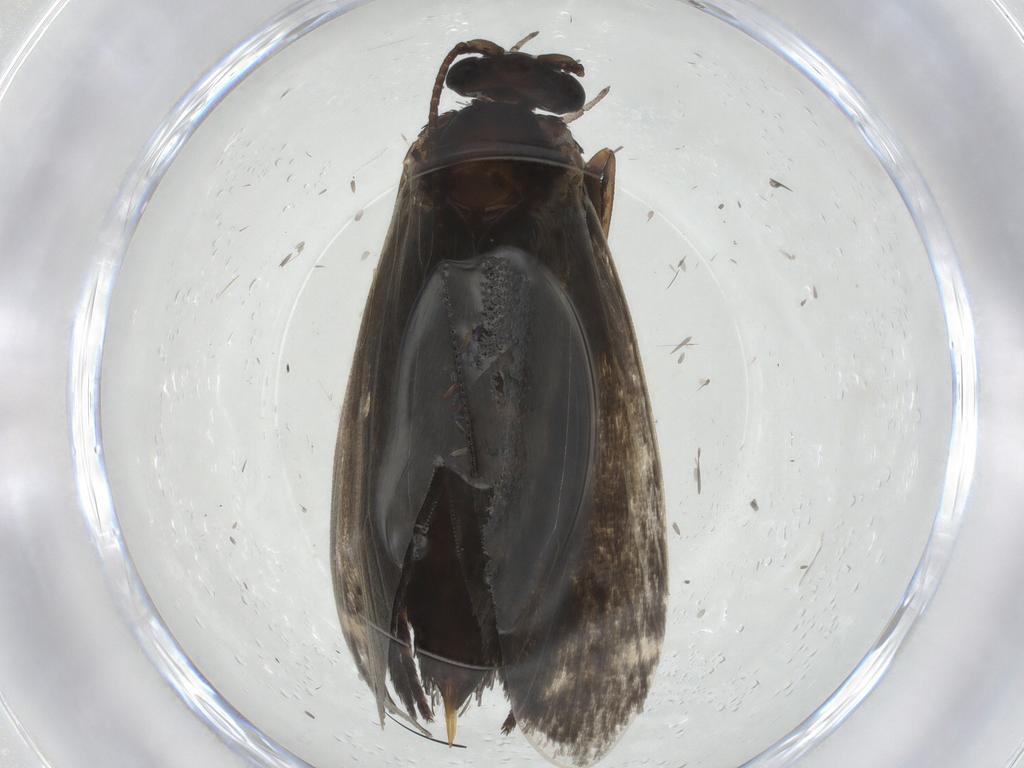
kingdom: Animalia
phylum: Arthropoda
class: Insecta
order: Lepidoptera
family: Adelidae
